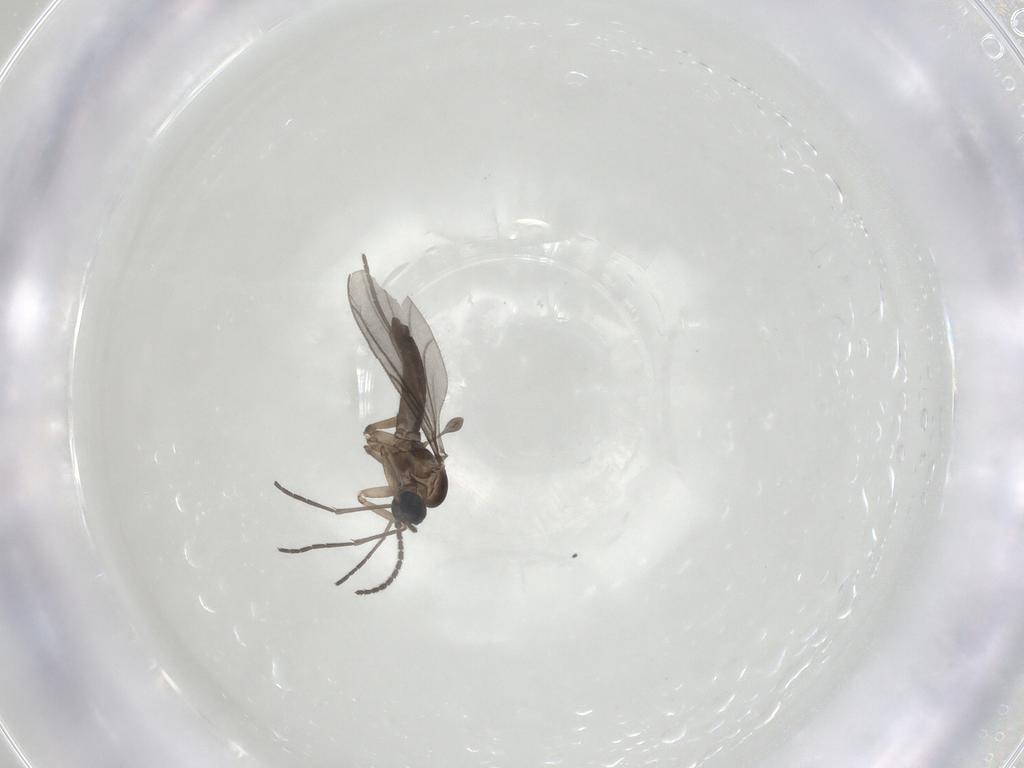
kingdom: Animalia
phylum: Arthropoda
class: Insecta
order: Diptera
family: Sciaridae
